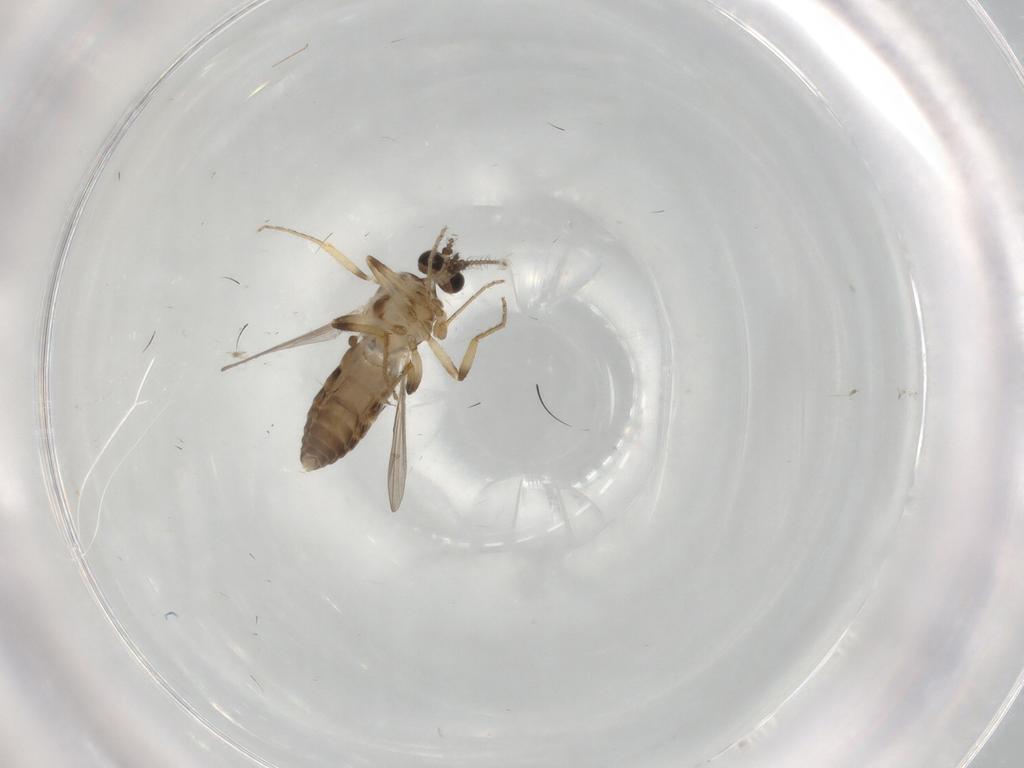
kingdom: Animalia
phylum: Arthropoda
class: Insecta
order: Diptera
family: Ceratopogonidae
